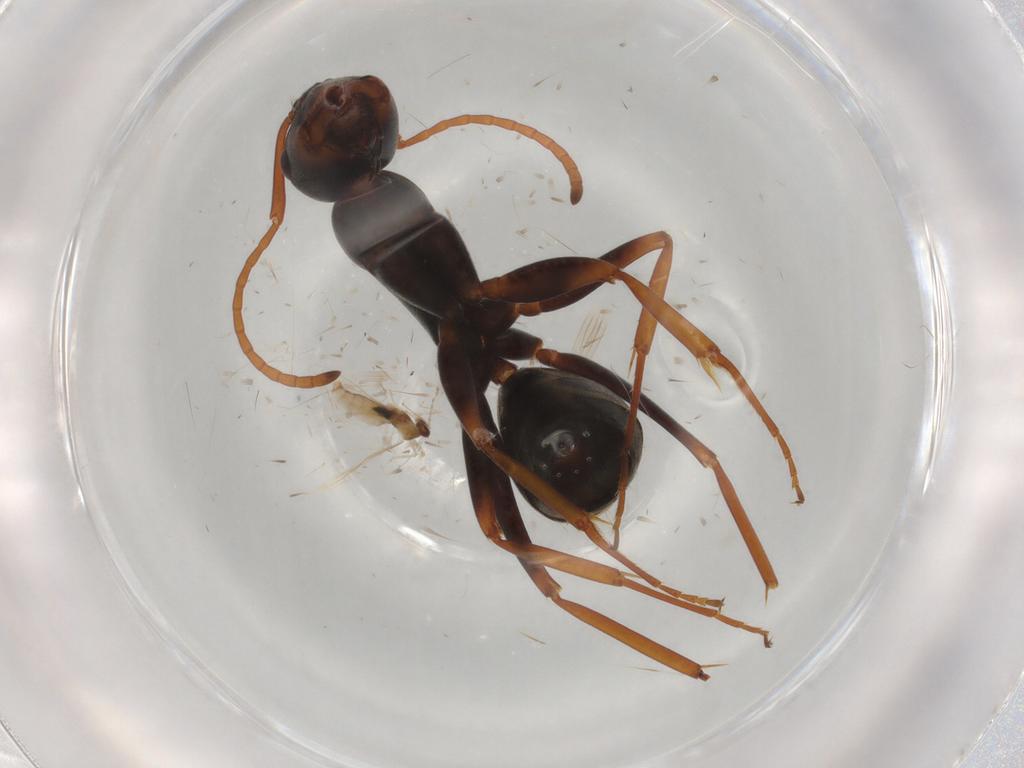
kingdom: Animalia
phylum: Arthropoda
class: Insecta
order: Hymenoptera
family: Formicidae
